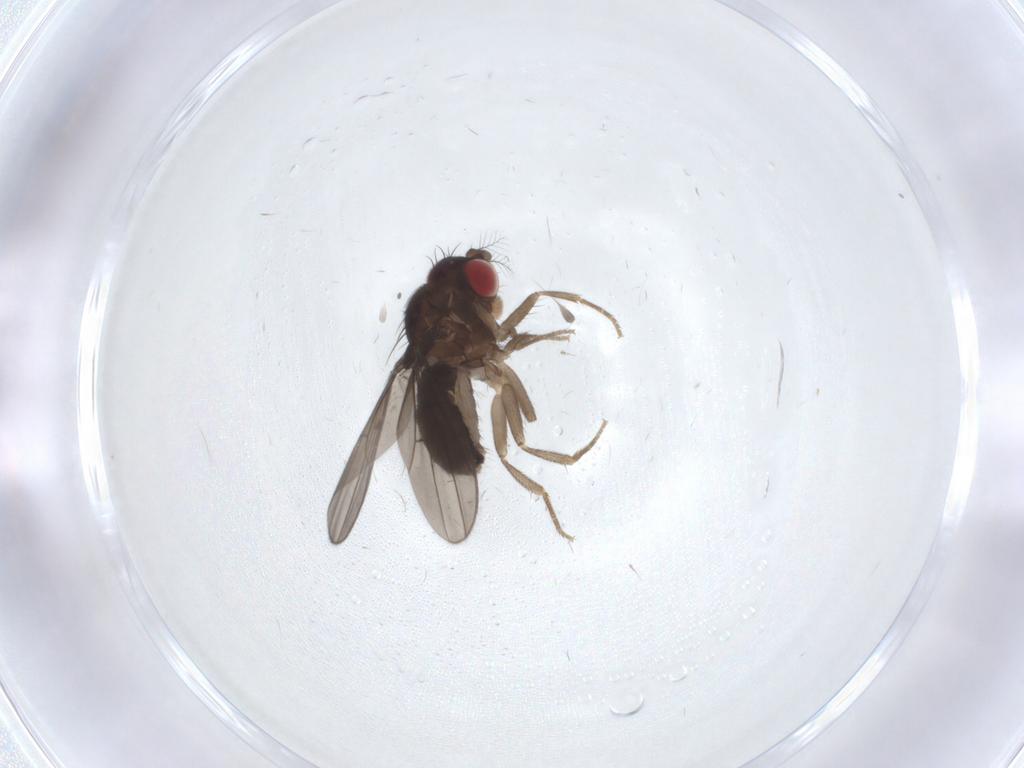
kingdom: Animalia
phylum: Arthropoda
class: Insecta
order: Diptera
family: Drosophilidae
